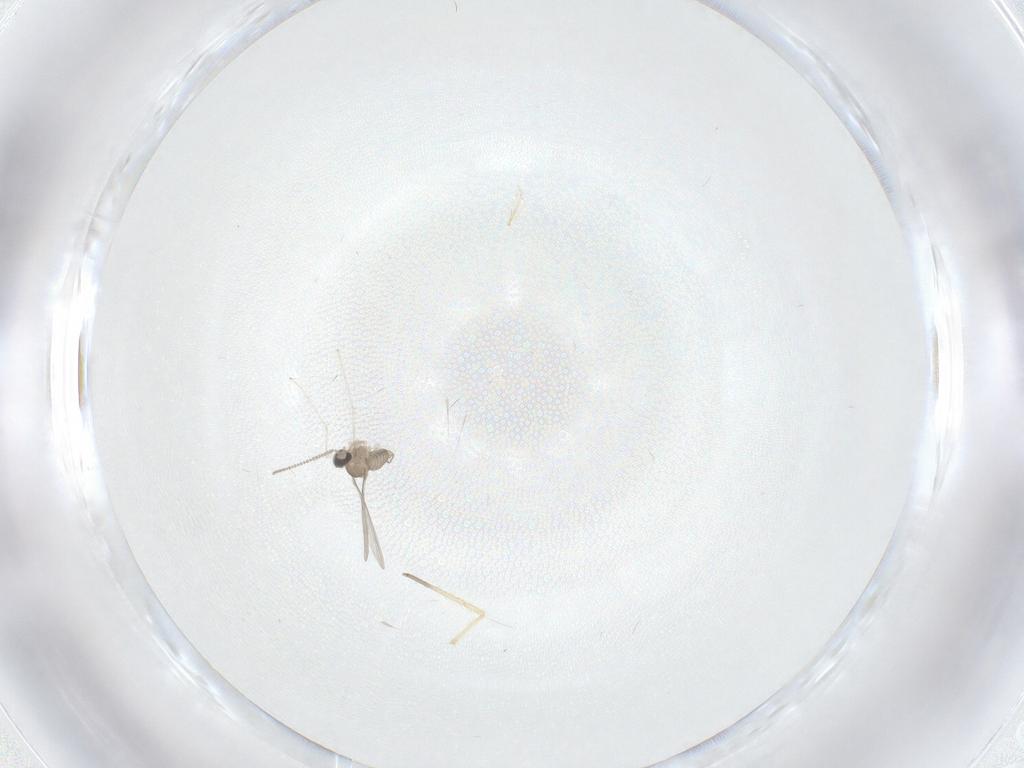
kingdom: Animalia
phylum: Arthropoda
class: Insecta
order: Diptera
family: Chironomidae
